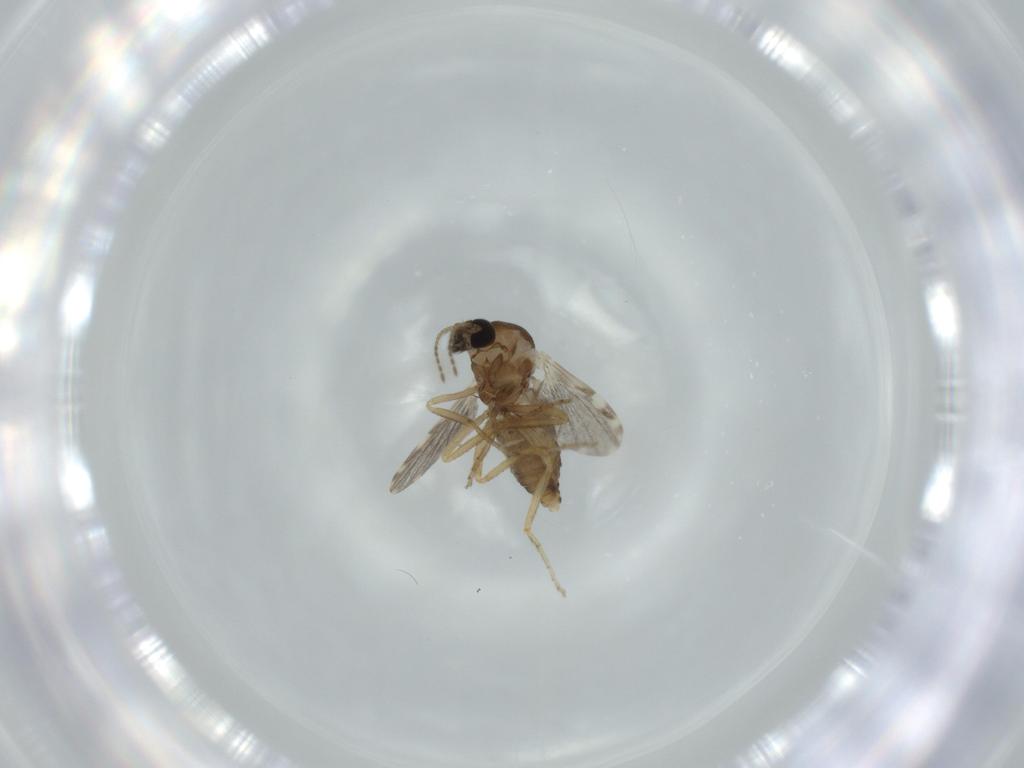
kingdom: Animalia
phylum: Arthropoda
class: Insecta
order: Diptera
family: Ceratopogonidae
